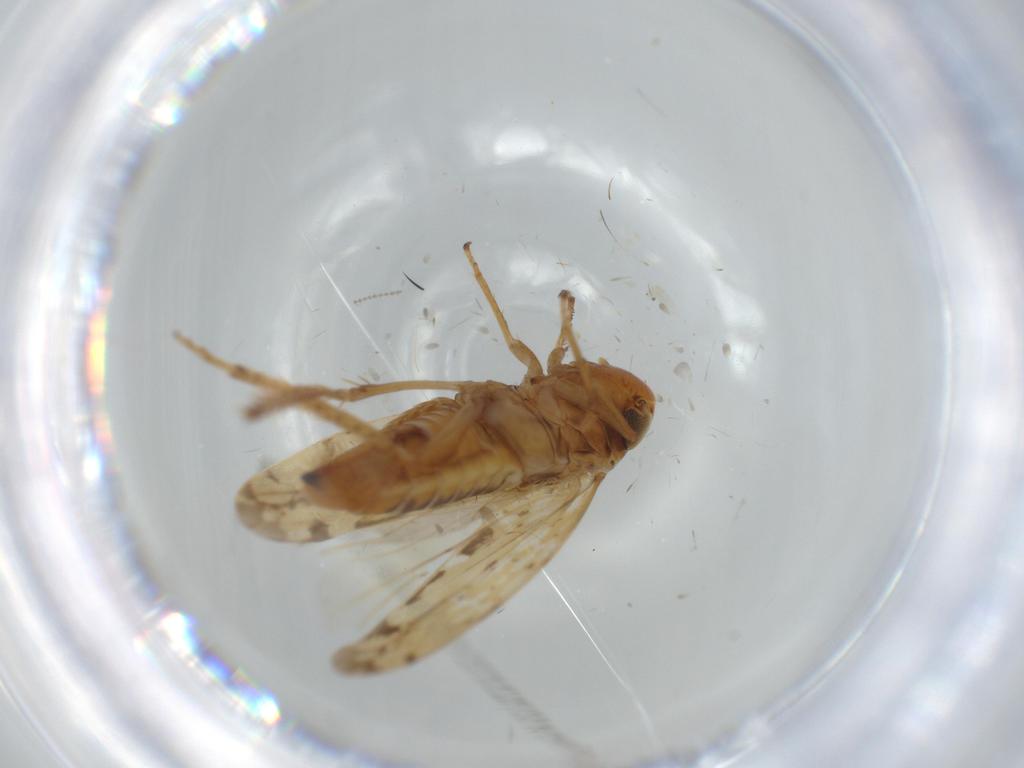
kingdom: Animalia
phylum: Arthropoda
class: Insecta
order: Hemiptera
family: Cicadellidae
